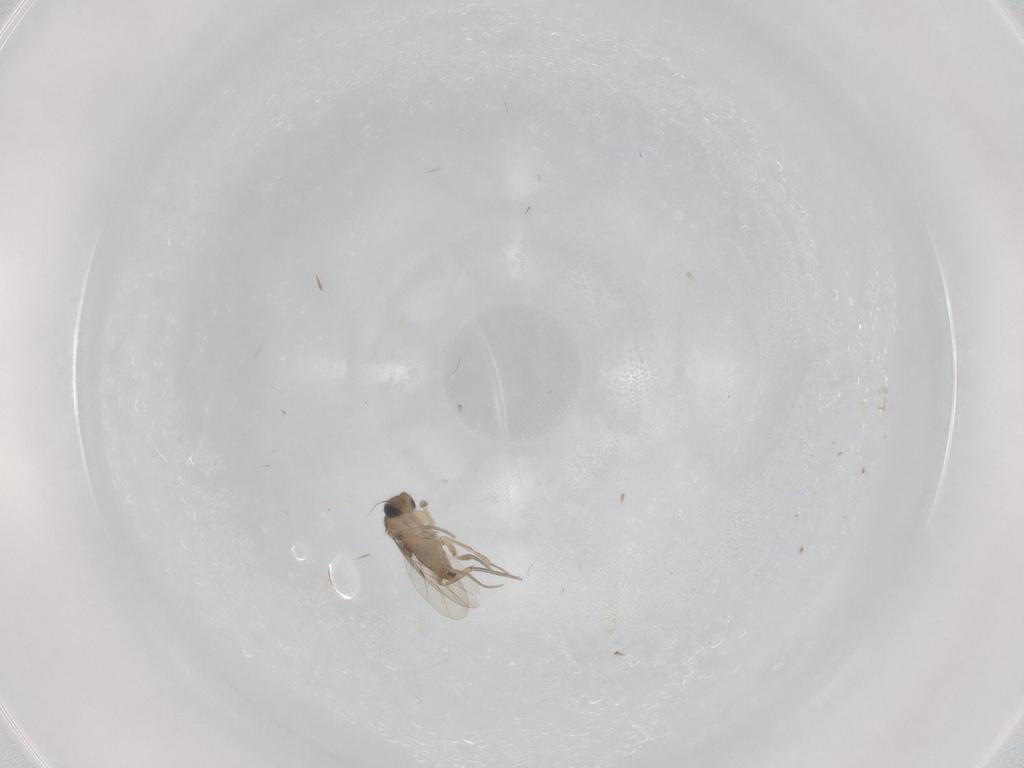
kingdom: Animalia
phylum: Arthropoda
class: Insecta
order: Diptera
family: Phoridae
